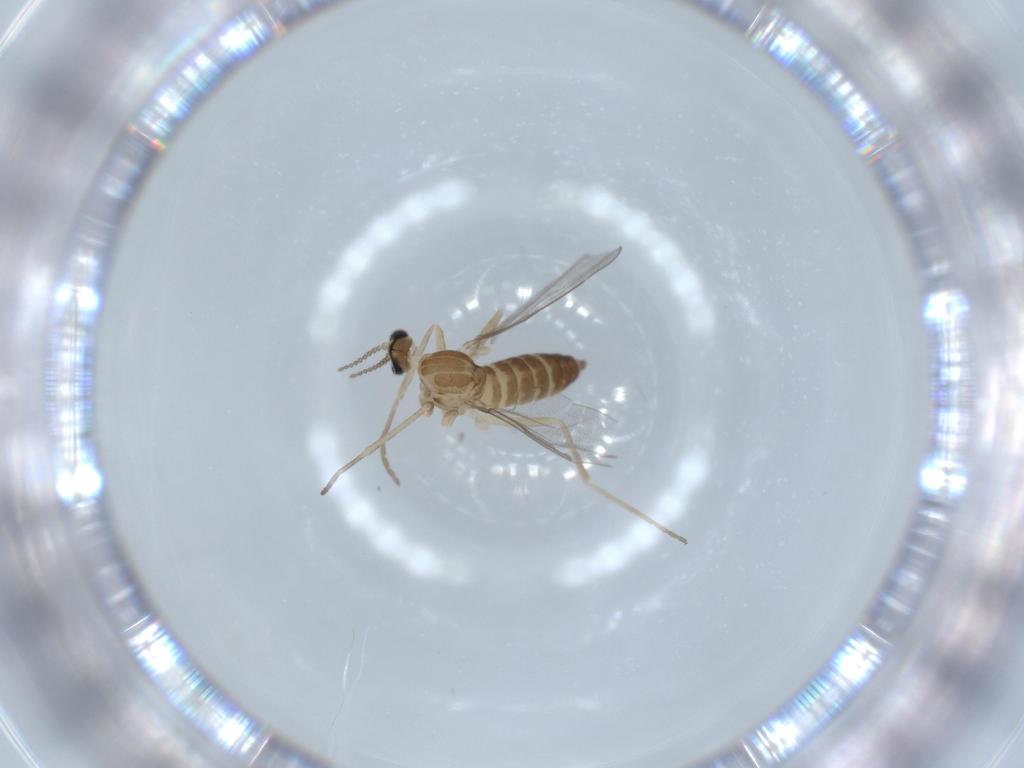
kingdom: Animalia
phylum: Arthropoda
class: Insecta
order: Diptera
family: Cecidomyiidae
